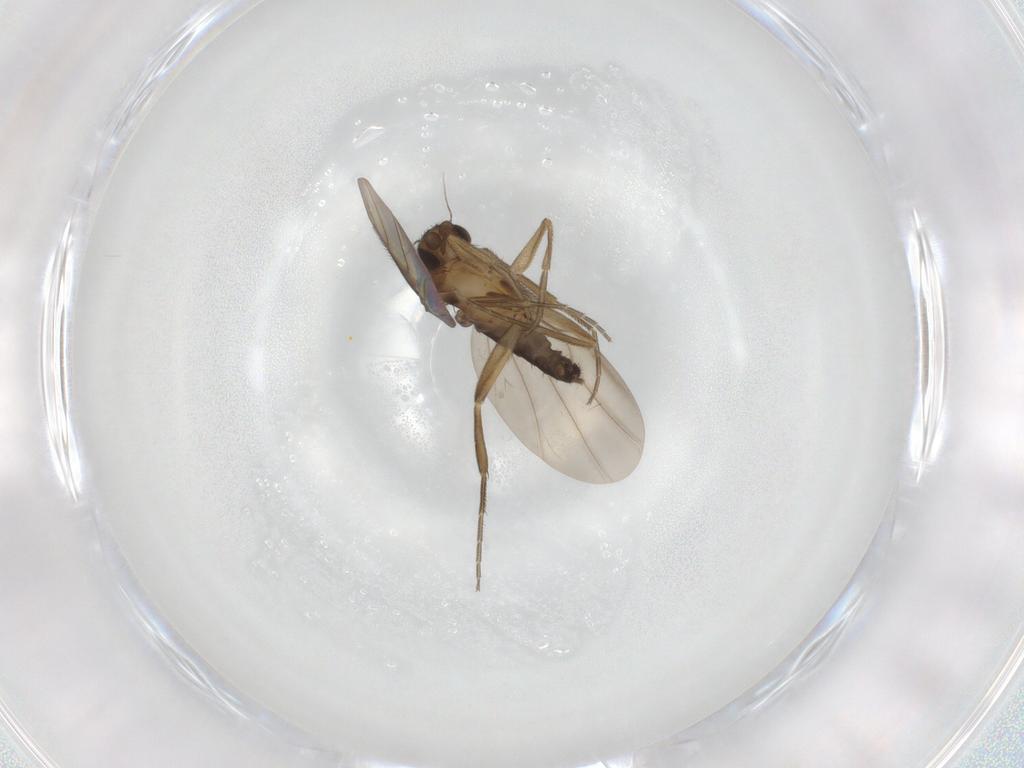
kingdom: Animalia
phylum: Arthropoda
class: Insecta
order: Diptera
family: Phoridae
